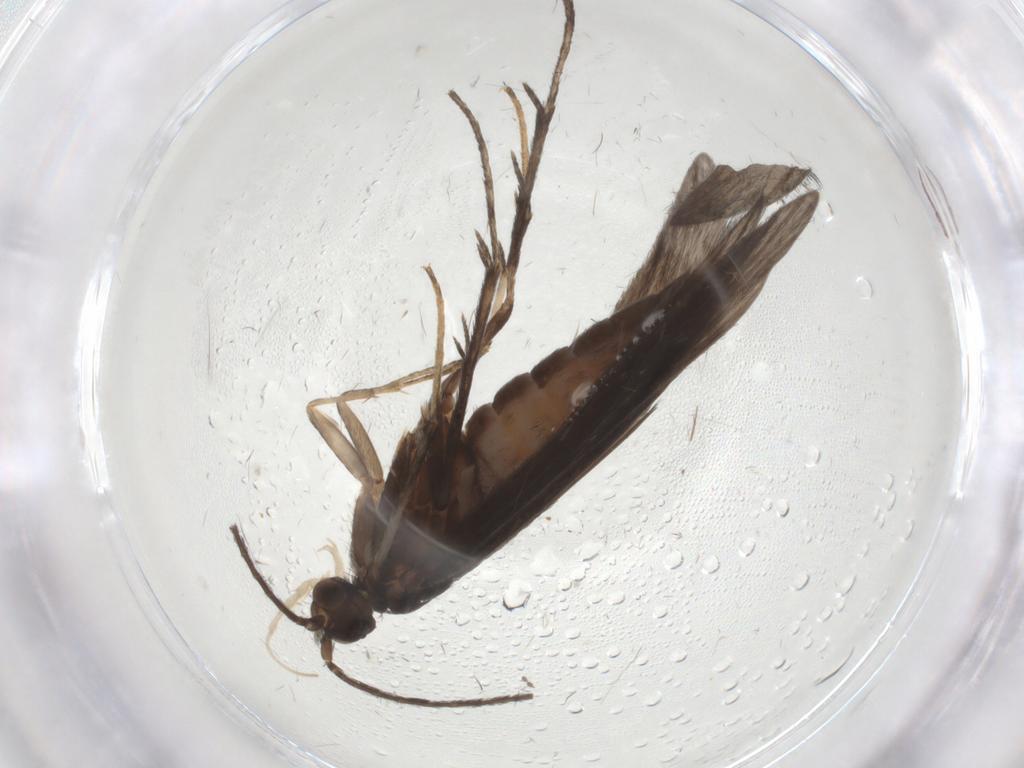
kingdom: Animalia
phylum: Arthropoda
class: Insecta
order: Trichoptera
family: Xiphocentronidae
